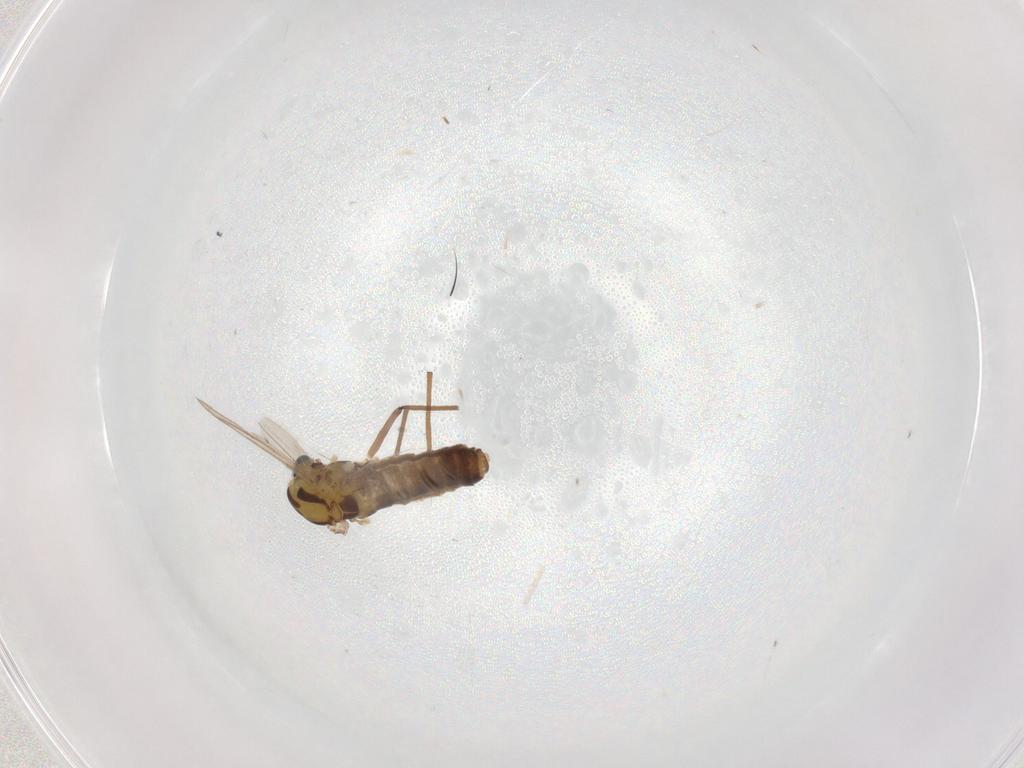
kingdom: Animalia
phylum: Arthropoda
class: Insecta
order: Diptera
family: Chironomidae
